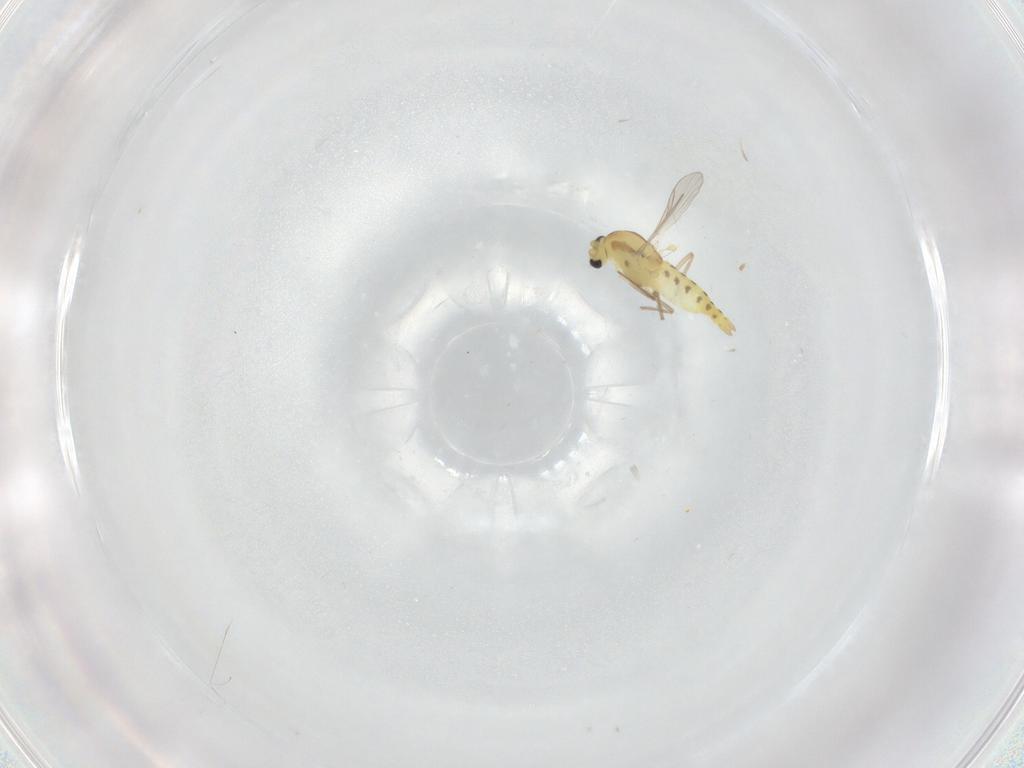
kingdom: Animalia
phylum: Arthropoda
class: Insecta
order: Diptera
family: Chironomidae
